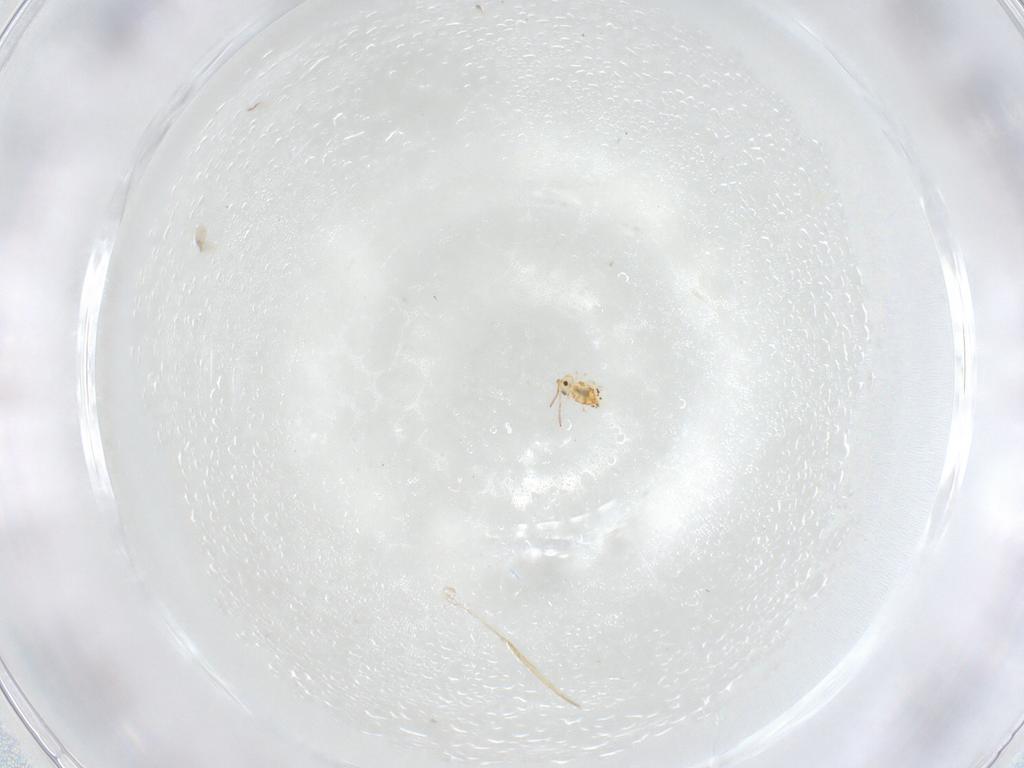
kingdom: Animalia
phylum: Arthropoda
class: Collembola
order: Symphypleona
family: Bourletiellidae
